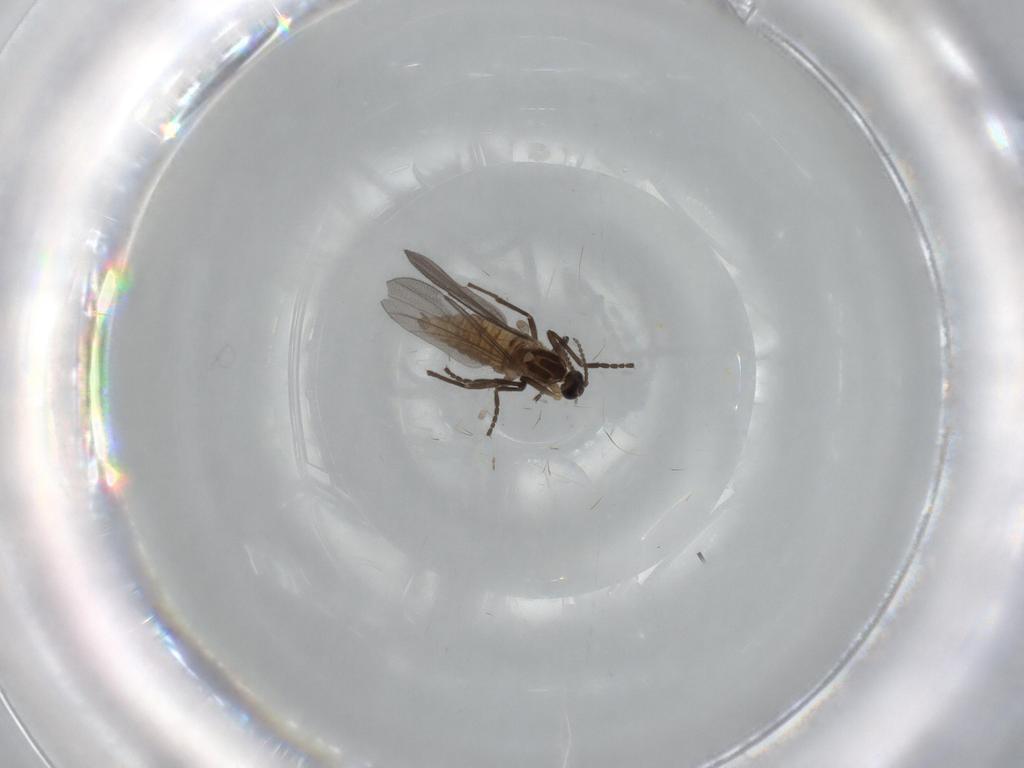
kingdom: Animalia
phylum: Arthropoda
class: Insecta
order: Diptera
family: Cecidomyiidae
